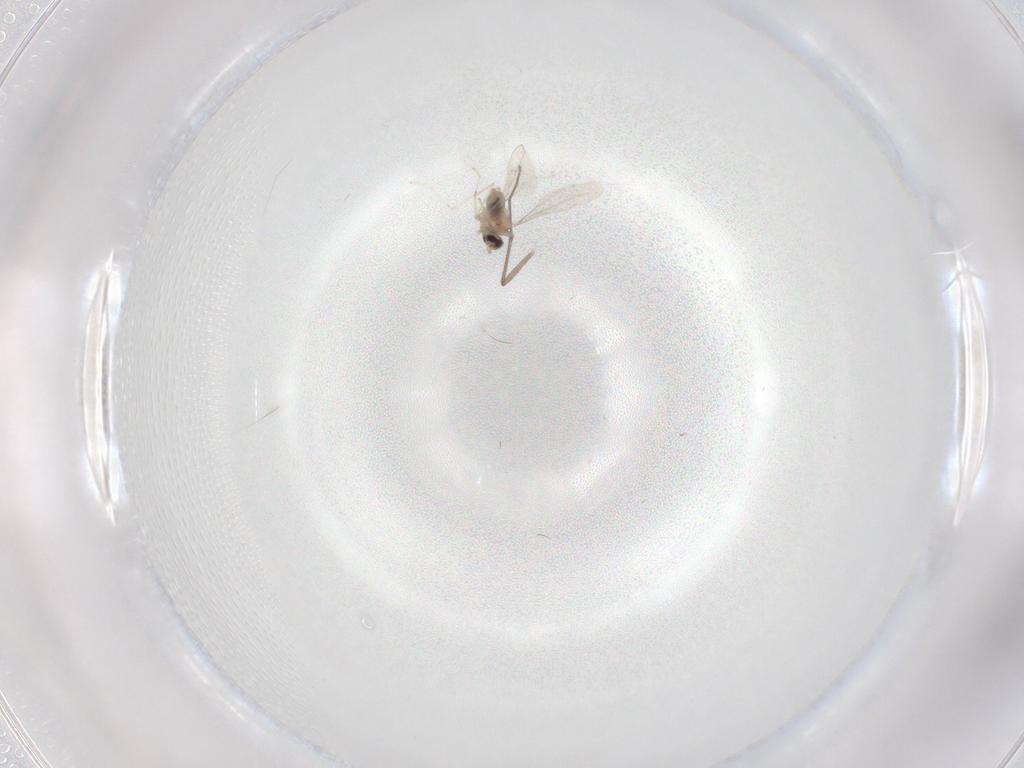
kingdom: Animalia
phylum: Arthropoda
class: Insecta
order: Diptera
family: Cecidomyiidae
